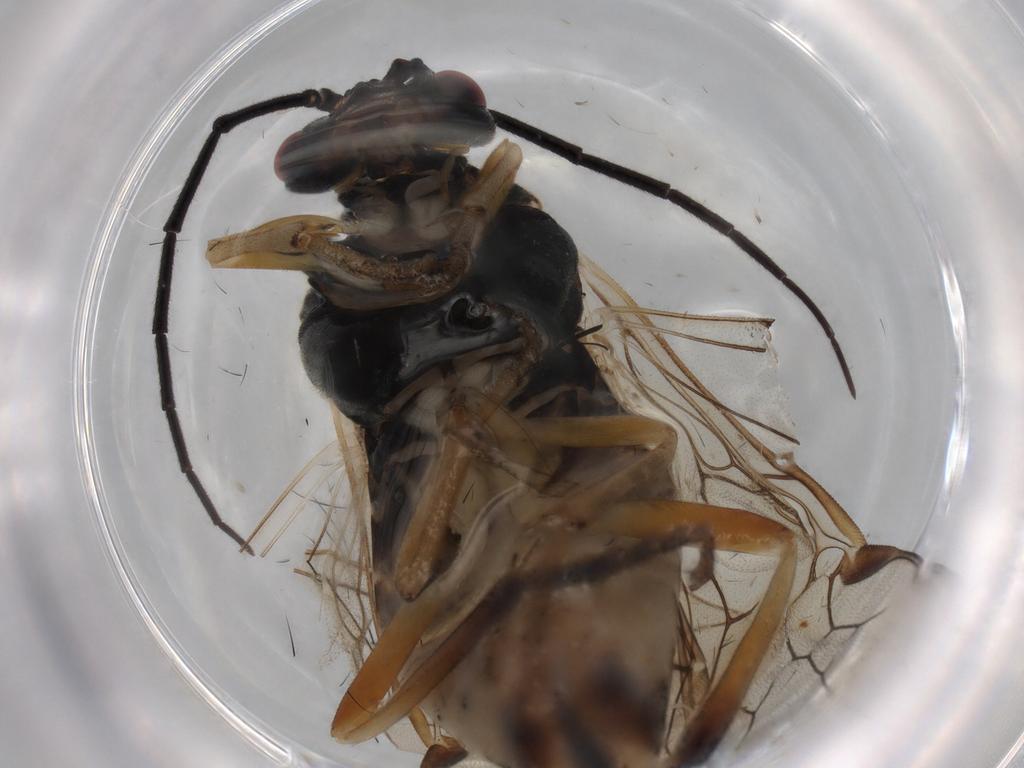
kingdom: Animalia
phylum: Arthropoda
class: Insecta
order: Hymenoptera
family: Tenthredinidae
